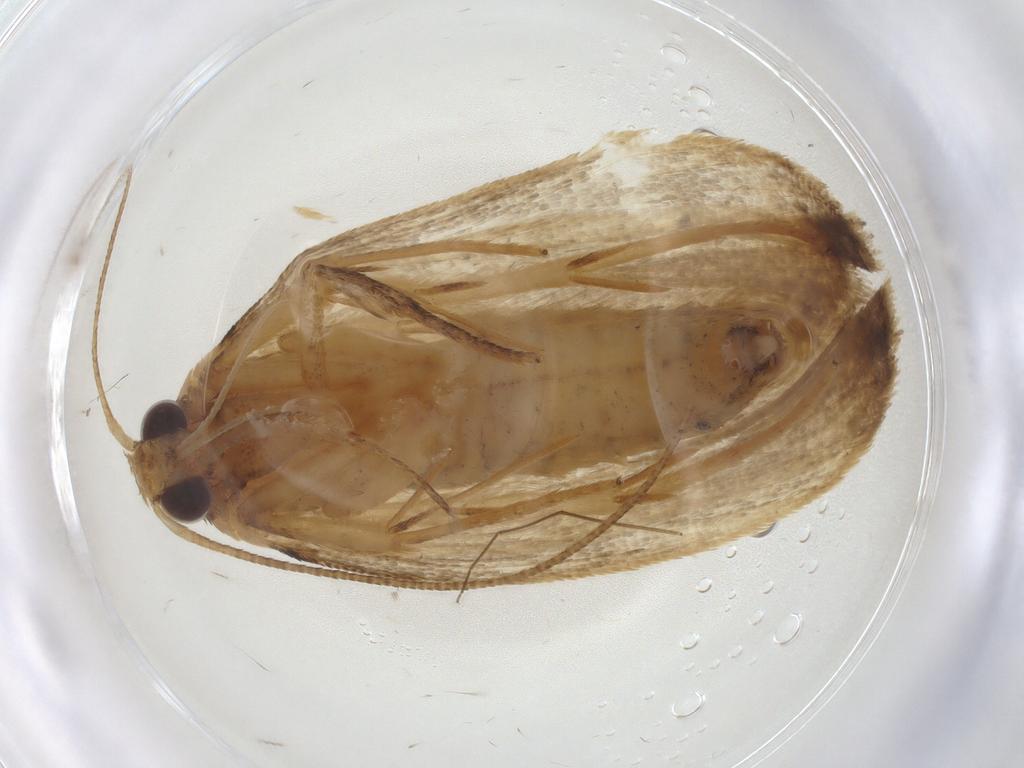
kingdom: Animalia
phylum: Arthropoda
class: Insecta
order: Lepidoptera
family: Depressariidae
